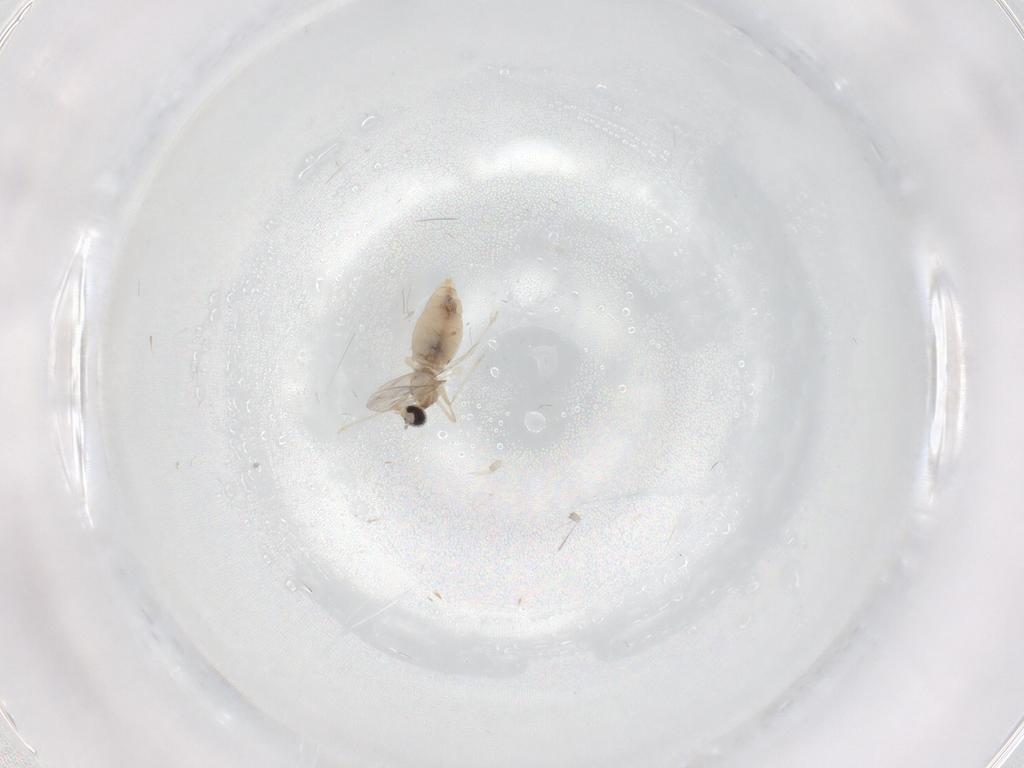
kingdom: Animalia
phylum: Arthropoda
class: Insecta
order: Diptera
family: Cecidomyiidae
